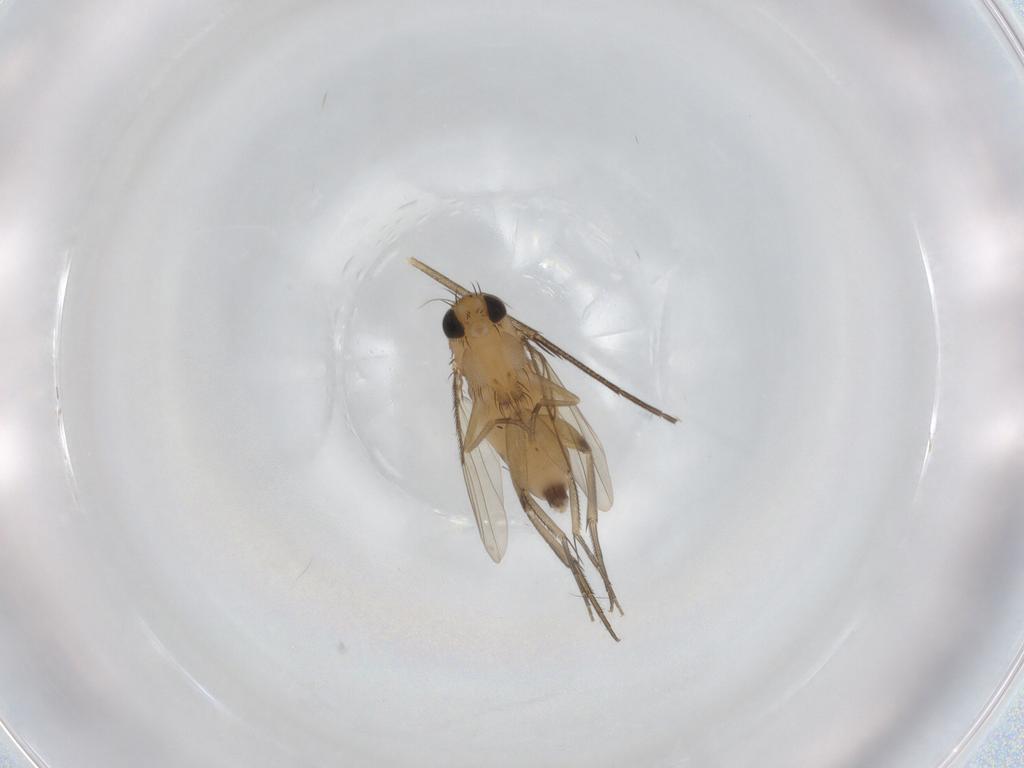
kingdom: Animalia
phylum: Arthropoda
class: Insecta
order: Diptera
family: Phoridae
